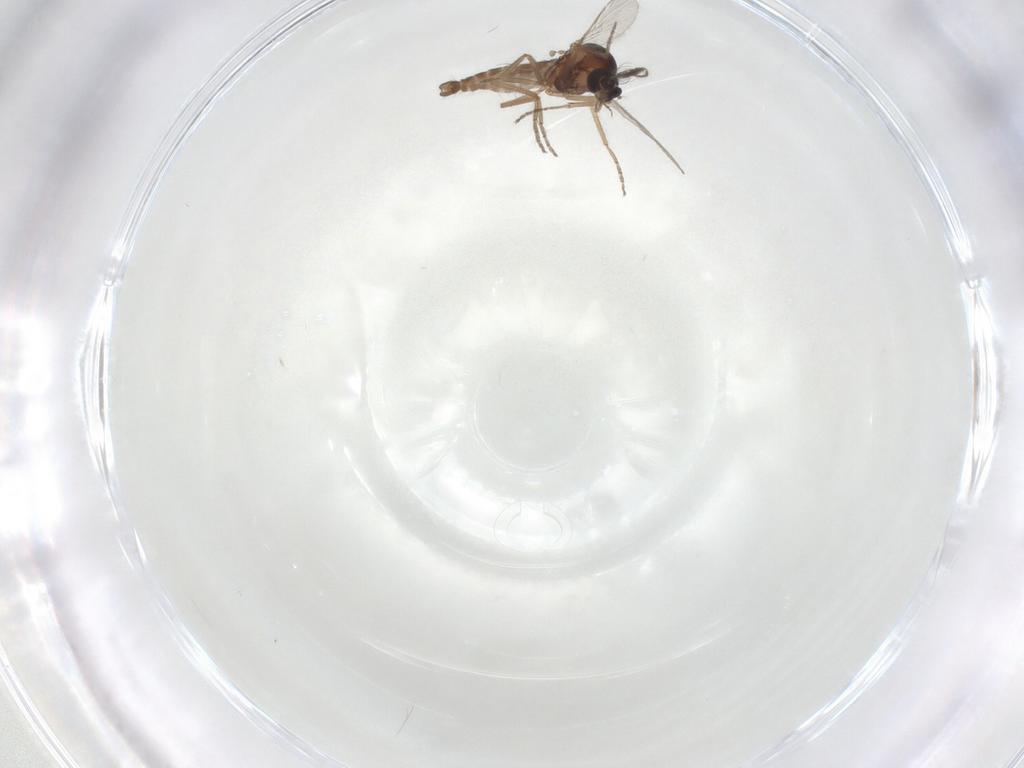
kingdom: Animalia
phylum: Arthropoda
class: Insecta
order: Diptera
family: Ceratopogonidae
